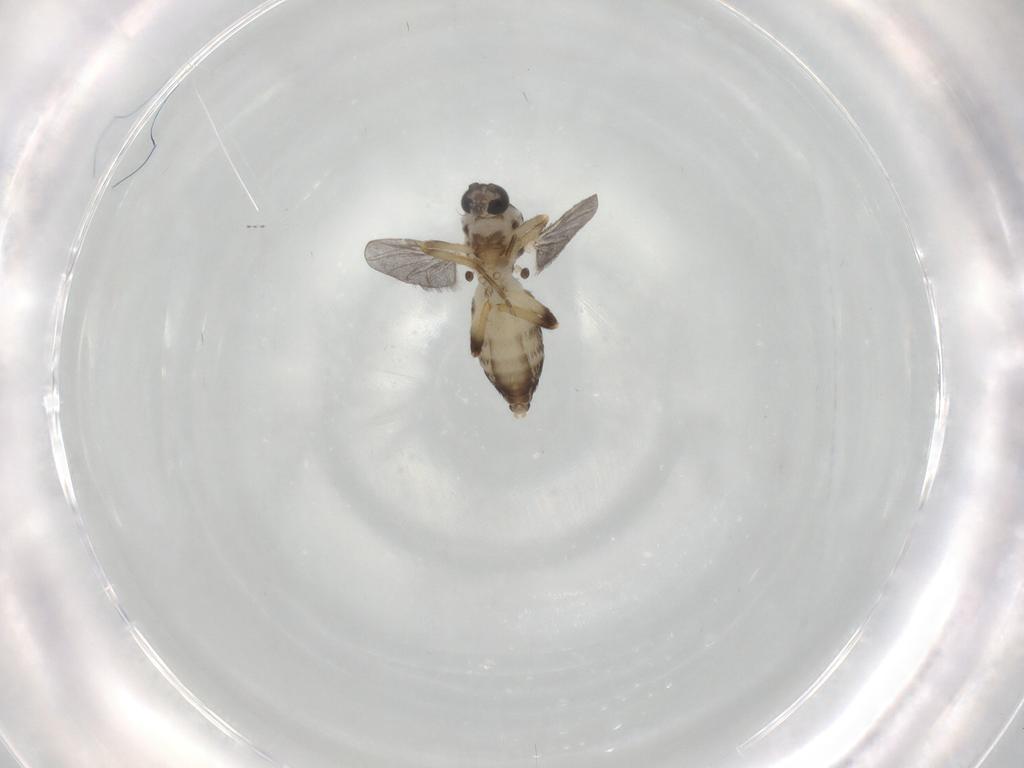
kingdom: Animalia
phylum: Arthropoda
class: Insecta
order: Diptera
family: Ceratopogonidae
